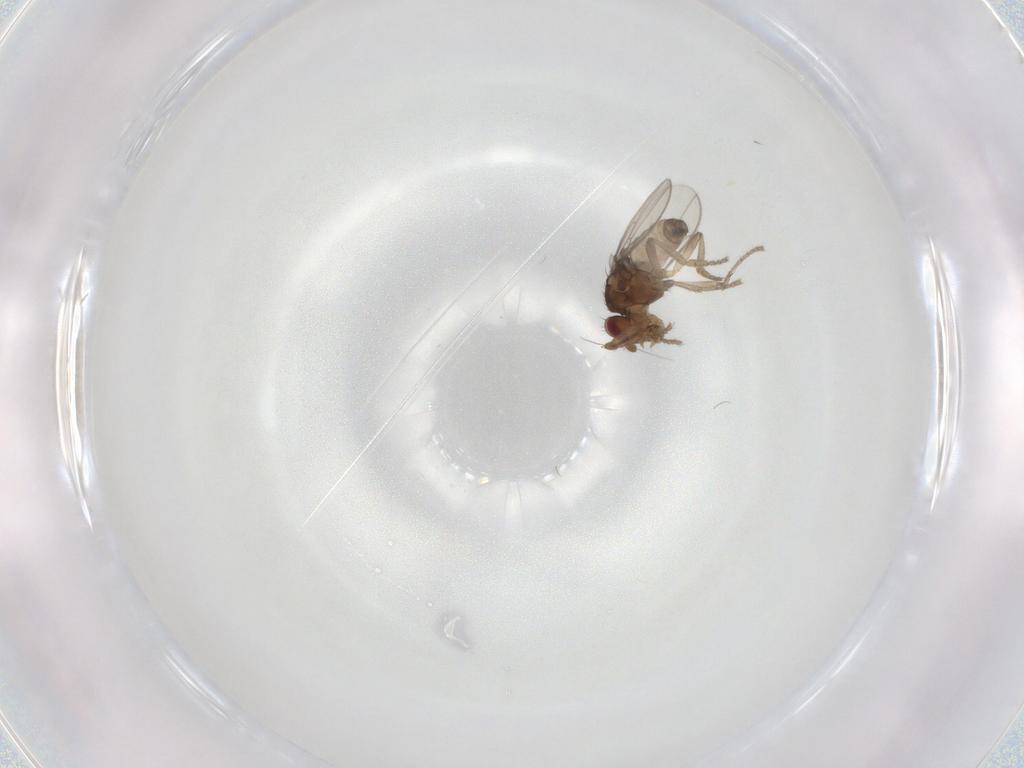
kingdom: Animalia
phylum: Arthropoda
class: Insecta
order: Diptera
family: Sphaeroceridae
